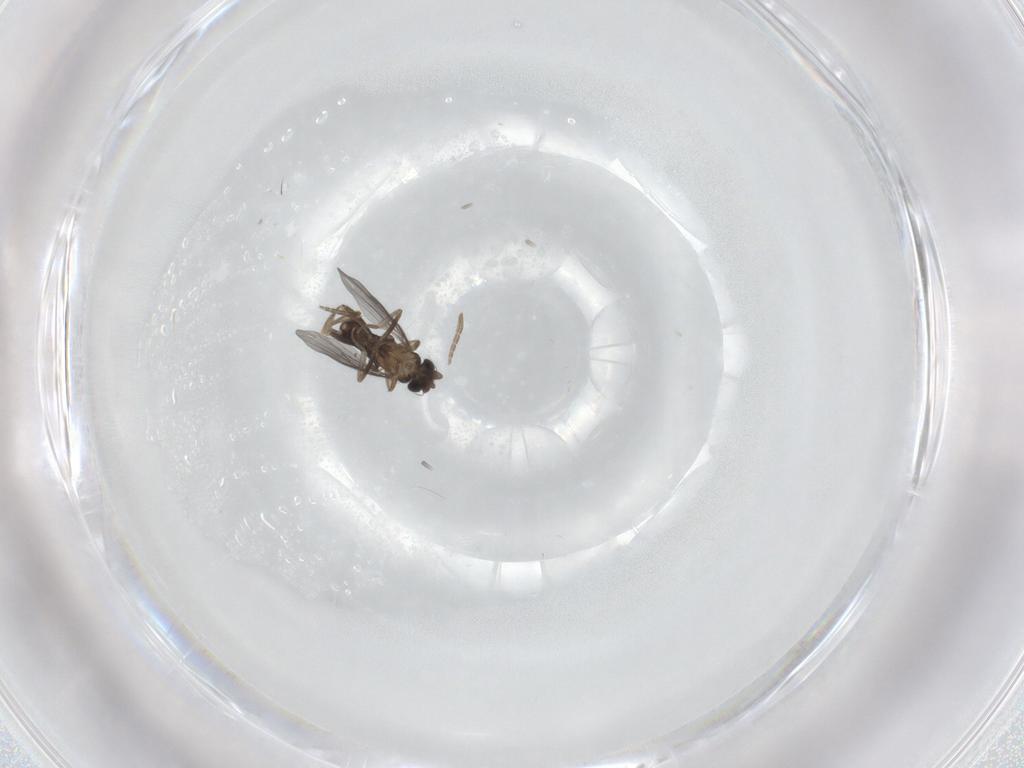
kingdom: Animalia
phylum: Arthropoda
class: Insecta
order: Diptera
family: Phoridae
